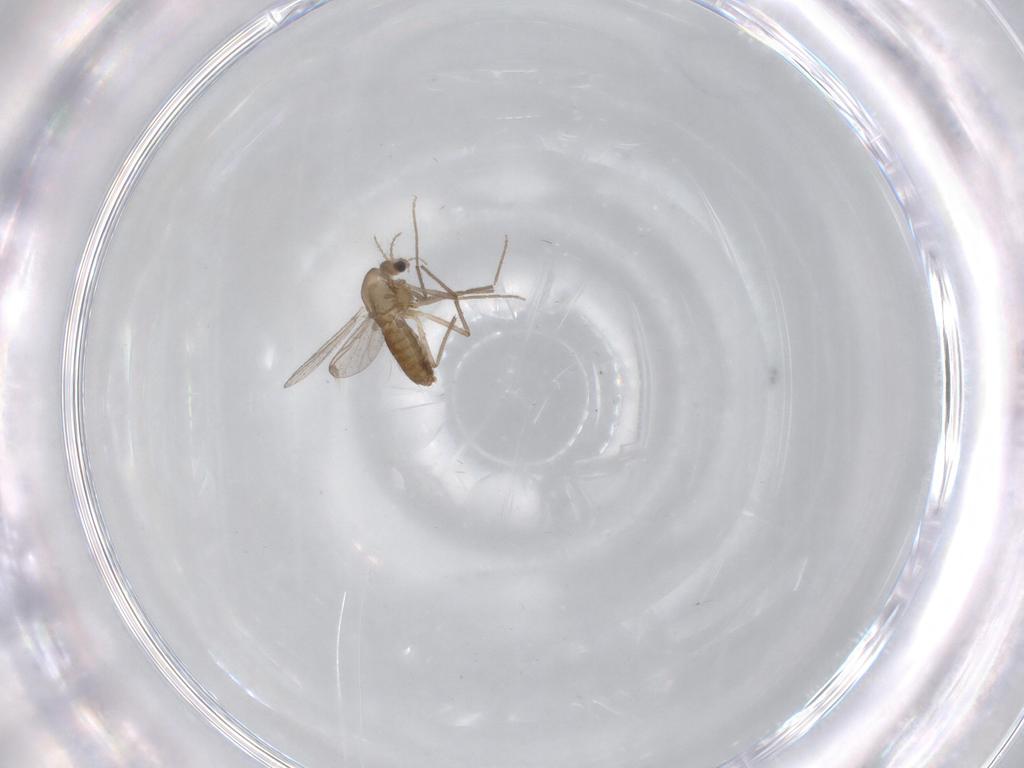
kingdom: Animalia
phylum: Arthropoda
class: Insecta
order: Diptera
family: Chironomidae
